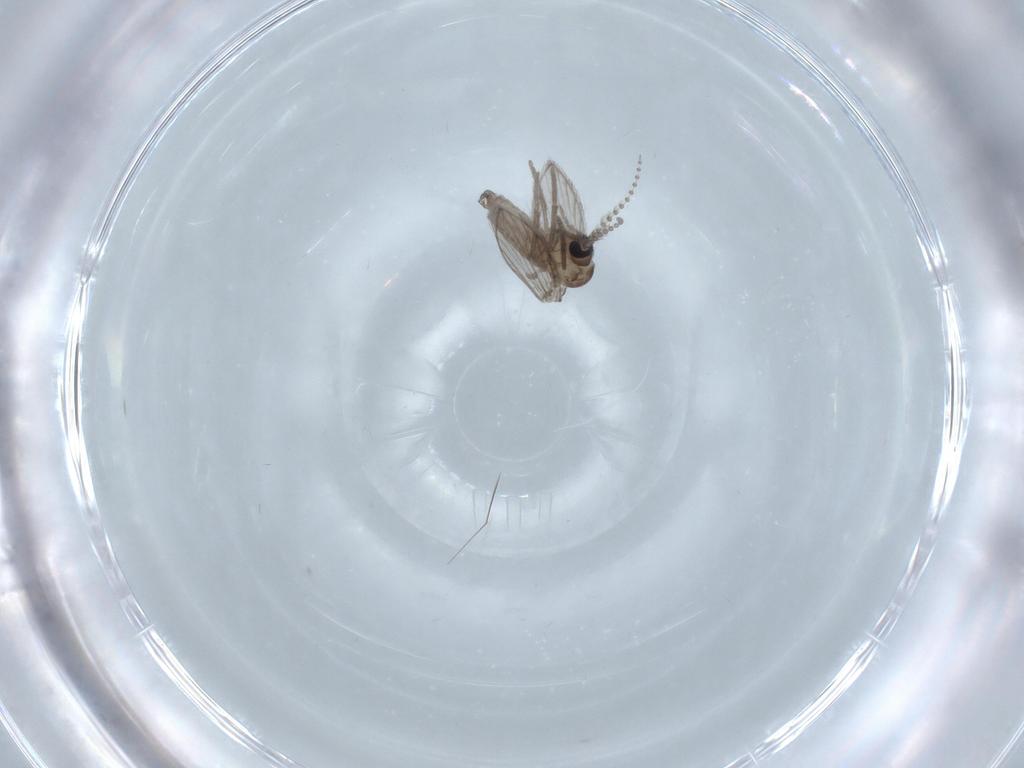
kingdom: Animalia
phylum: Arthropoda
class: Insecta
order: Diptera
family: Psychodidae
